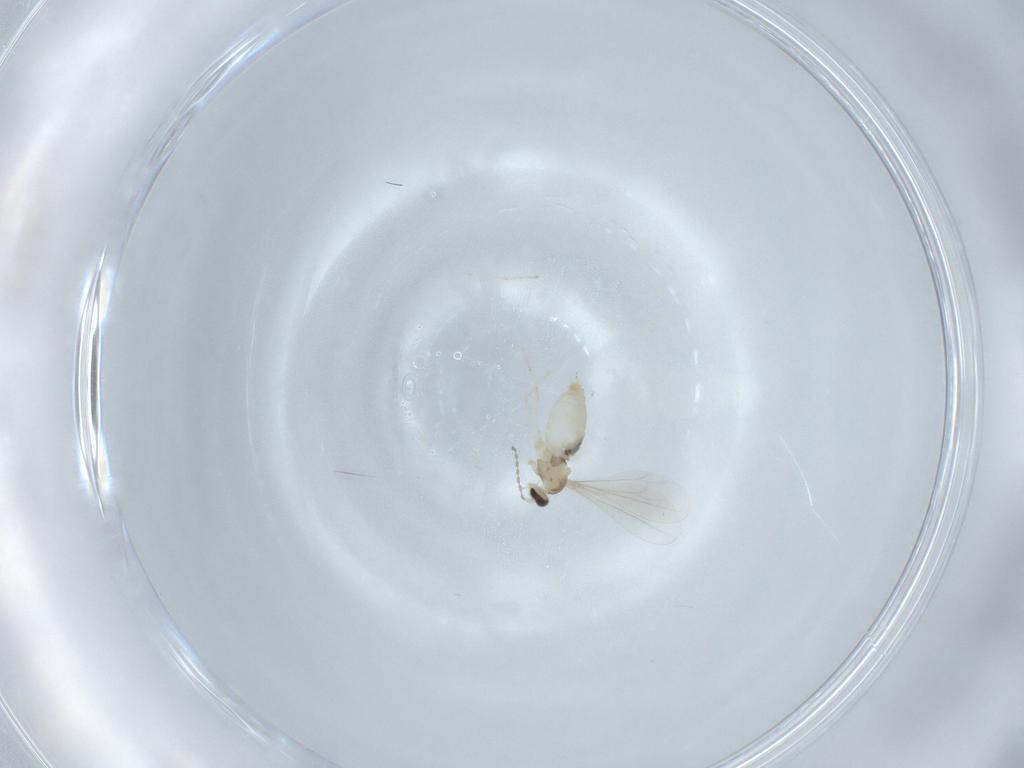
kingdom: Animalia
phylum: Arthropoda
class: Insecta
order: Diptera
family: Cecidomyiidae
